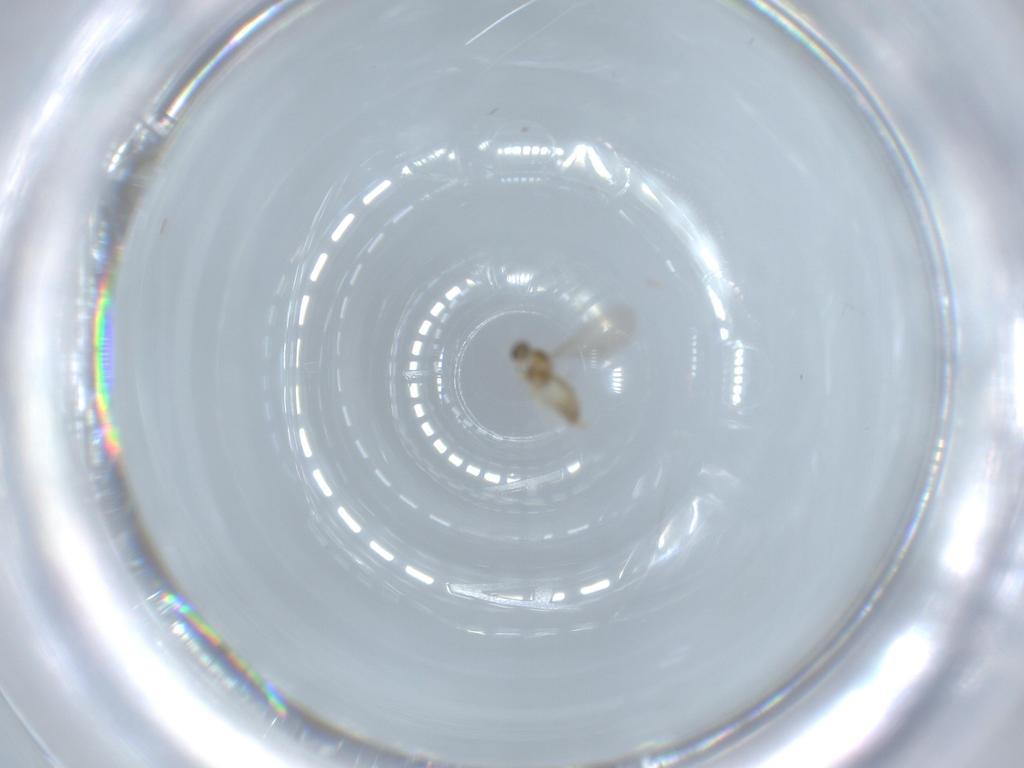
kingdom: Animalia
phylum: Arthropoda
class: Insecta
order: Diptera
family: Cecidomyiidae
